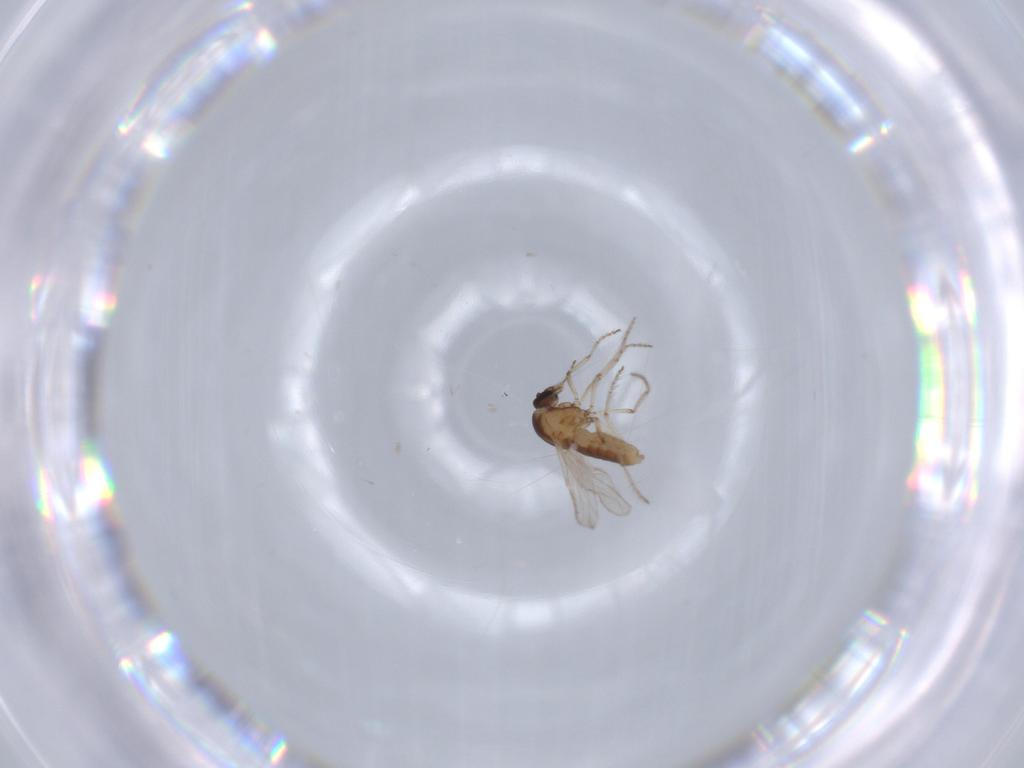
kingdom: Animalia
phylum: Arthropoda
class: Insecta
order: Diptera
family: Ceratopogonidae
